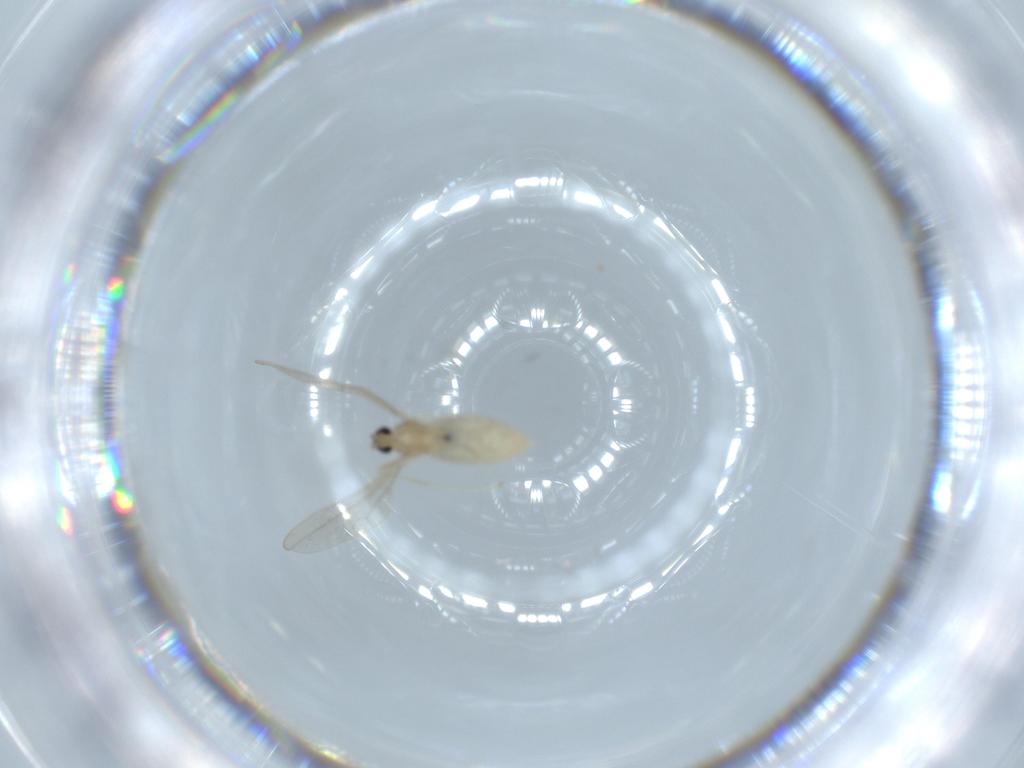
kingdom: Animalia
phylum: Arthropoda
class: Insecta
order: Diptera
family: Cecidomyiidae
